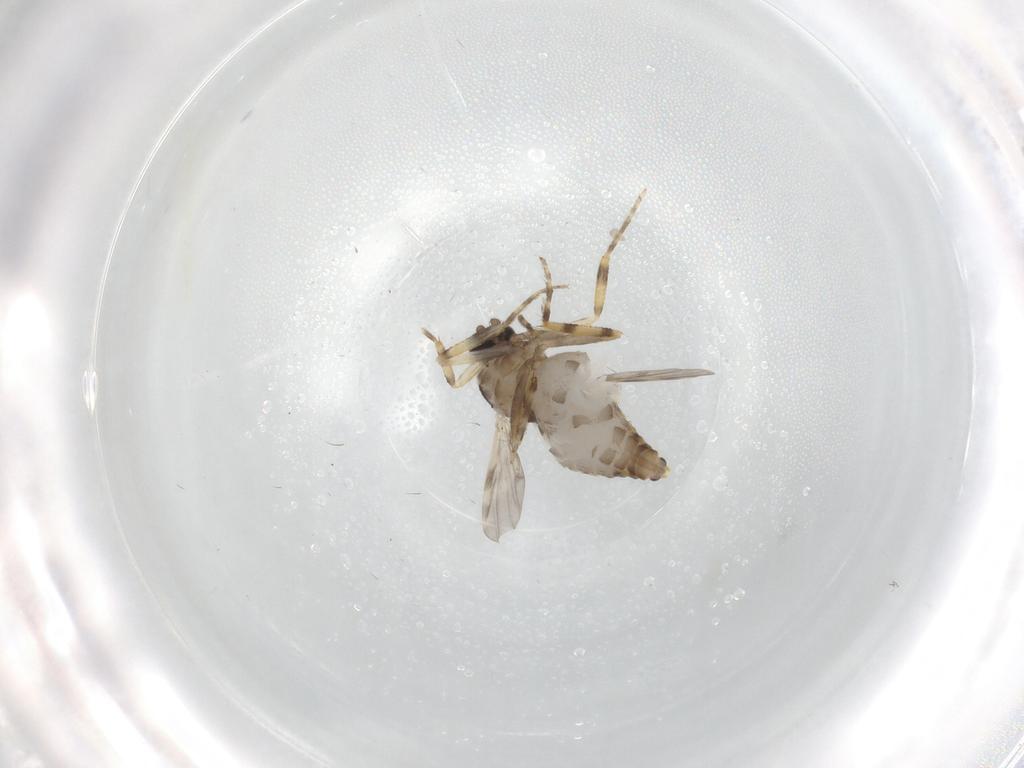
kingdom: Animalia
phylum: Arthropoda
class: Insecta
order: Diptera
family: Ceratopogonidae
